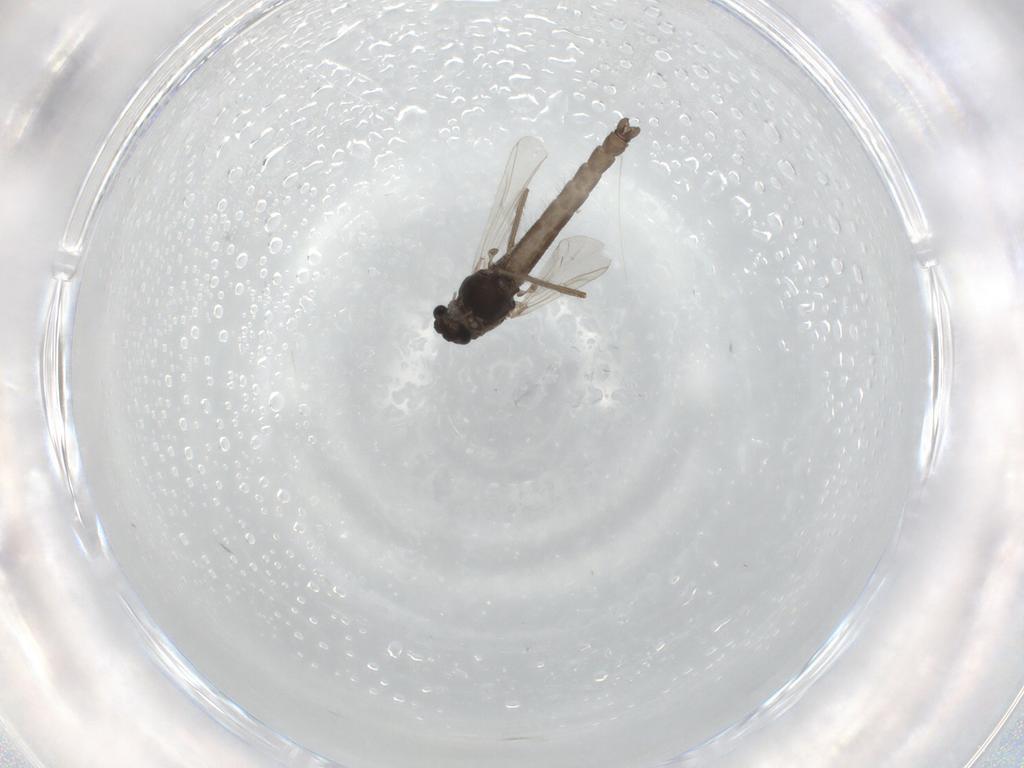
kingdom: Animalia
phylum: Arthropoda
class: Insecta
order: Diptera
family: Chironomidae
